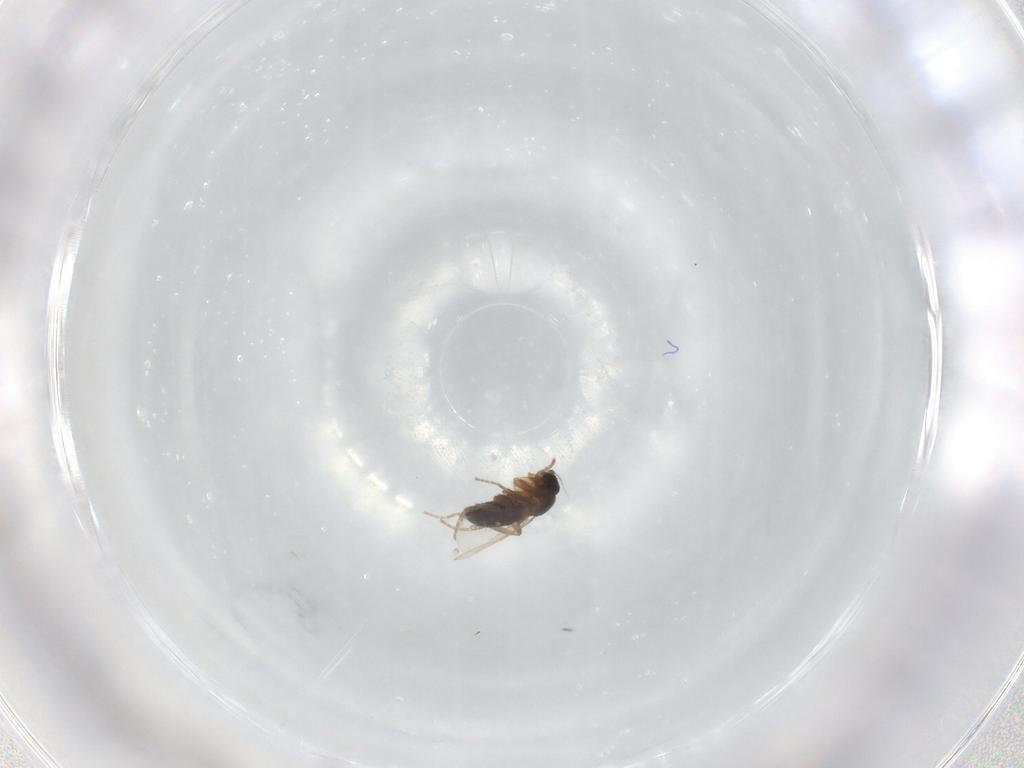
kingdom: Animalia
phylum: Arthropoda
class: Insecta
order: Diptera
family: Phoridae
